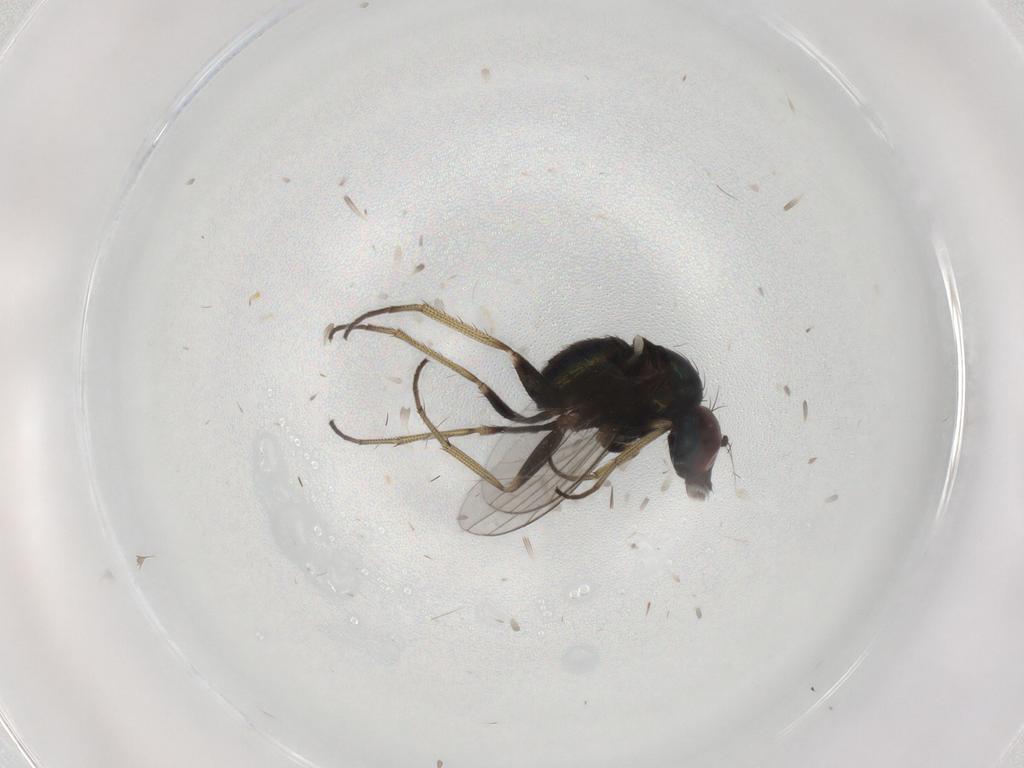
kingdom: Animalia
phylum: Arthropoda
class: Insecta
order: Diptera
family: Dolichopodidae
